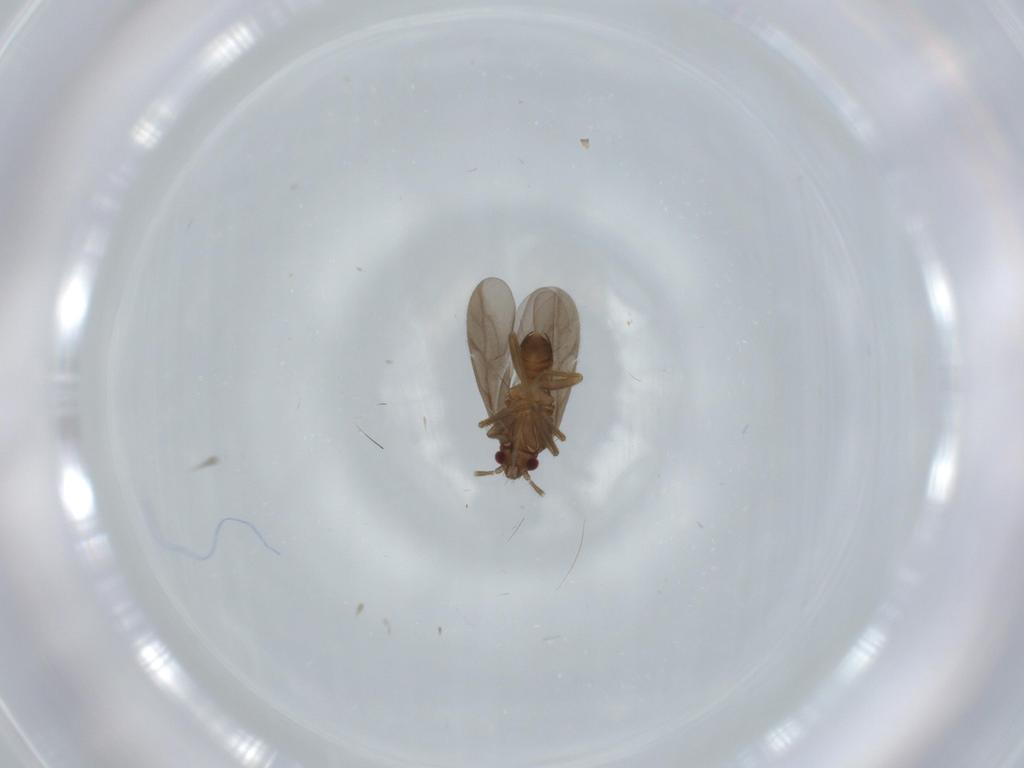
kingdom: Animalia
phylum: Arthropoda
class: Insecta
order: Hemiptera
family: Ceratocombidae
